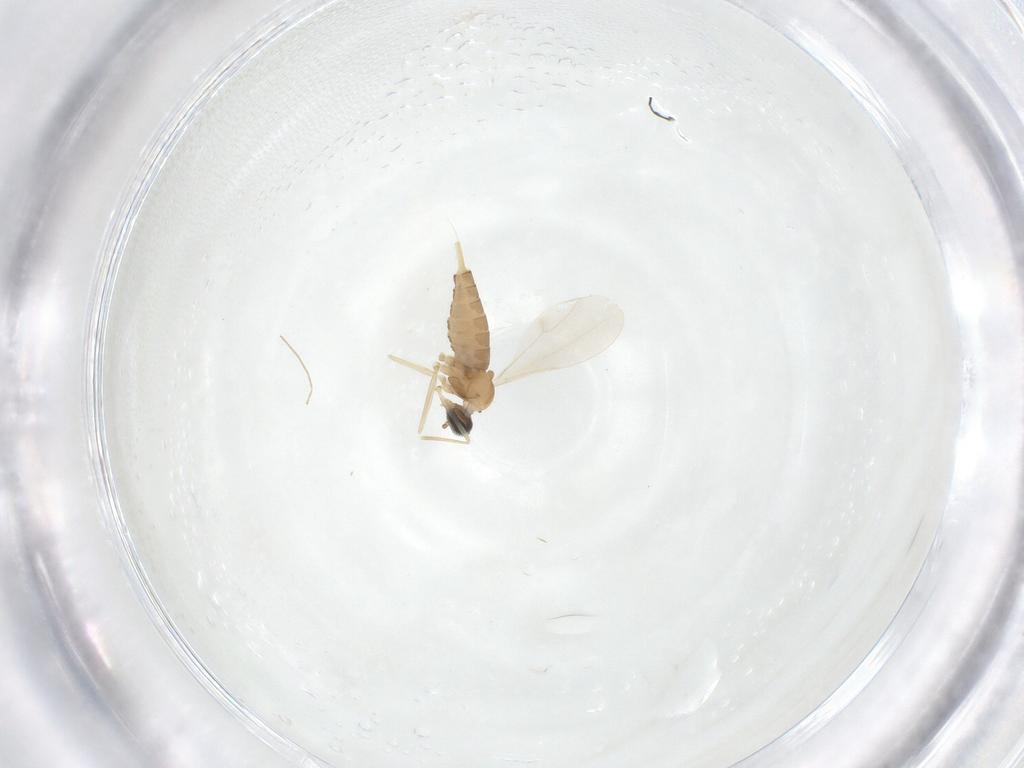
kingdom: Animalia
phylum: Arthropoda
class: Insecta
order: Diptera
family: Cecidomyiidae
